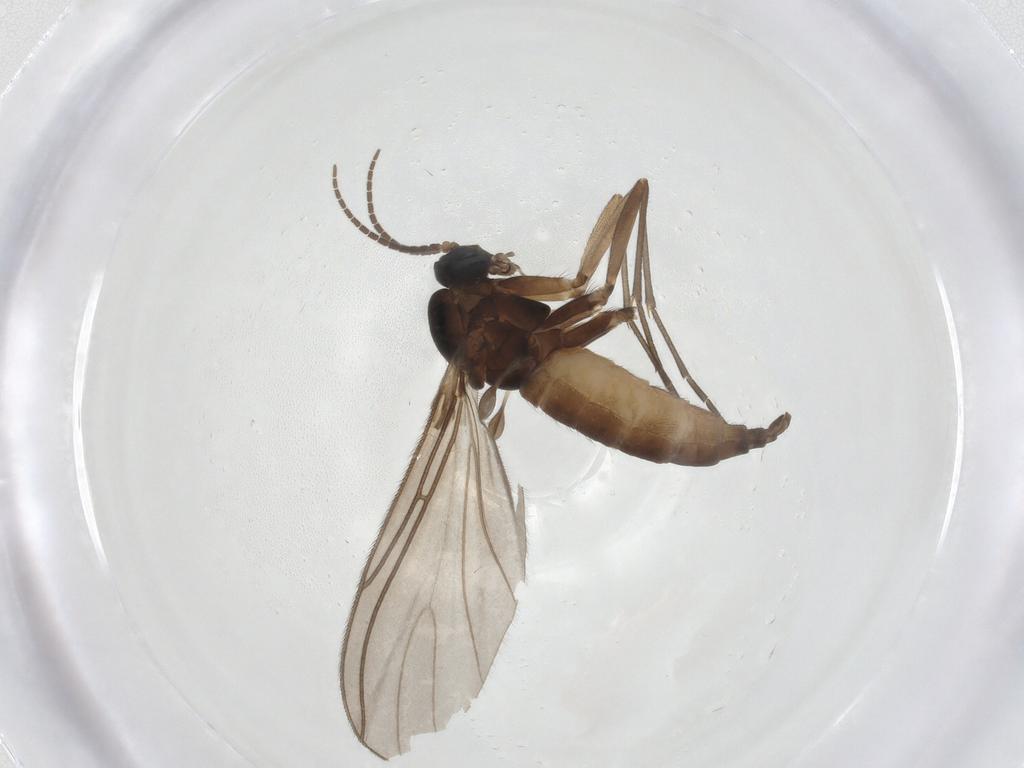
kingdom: Animalia
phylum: Arthropoda
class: Insecta
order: Diptera
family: Sciaridae
